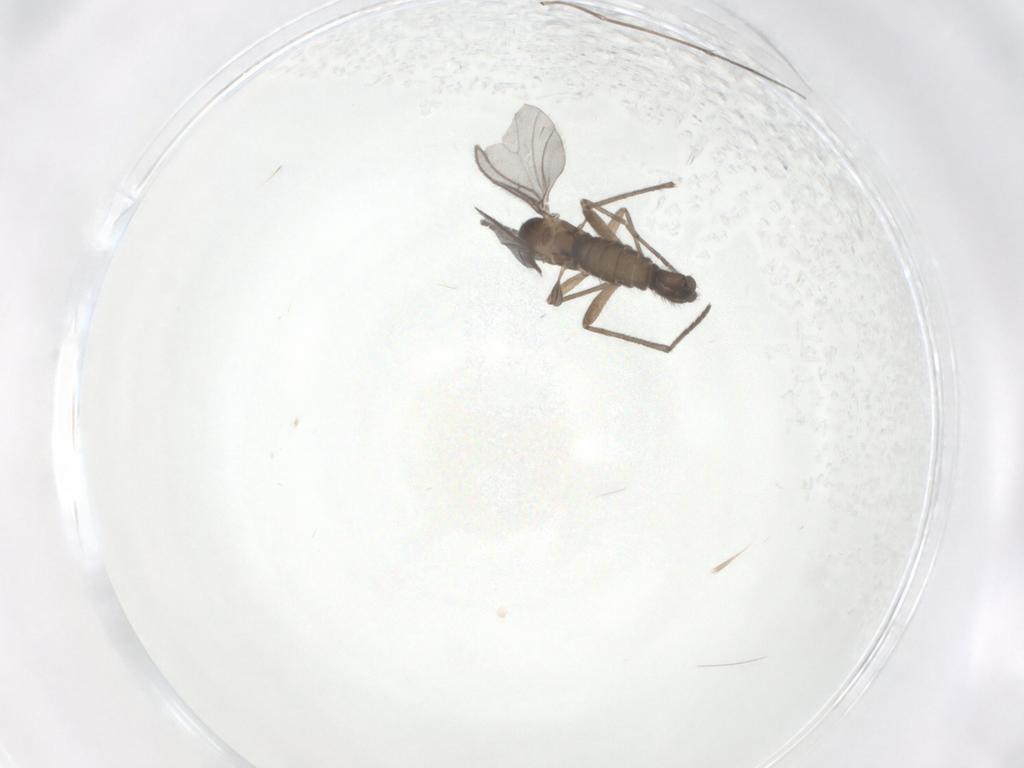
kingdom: Animalia
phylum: Arthropoda
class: Insecta
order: Diptera
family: Sciaridae
